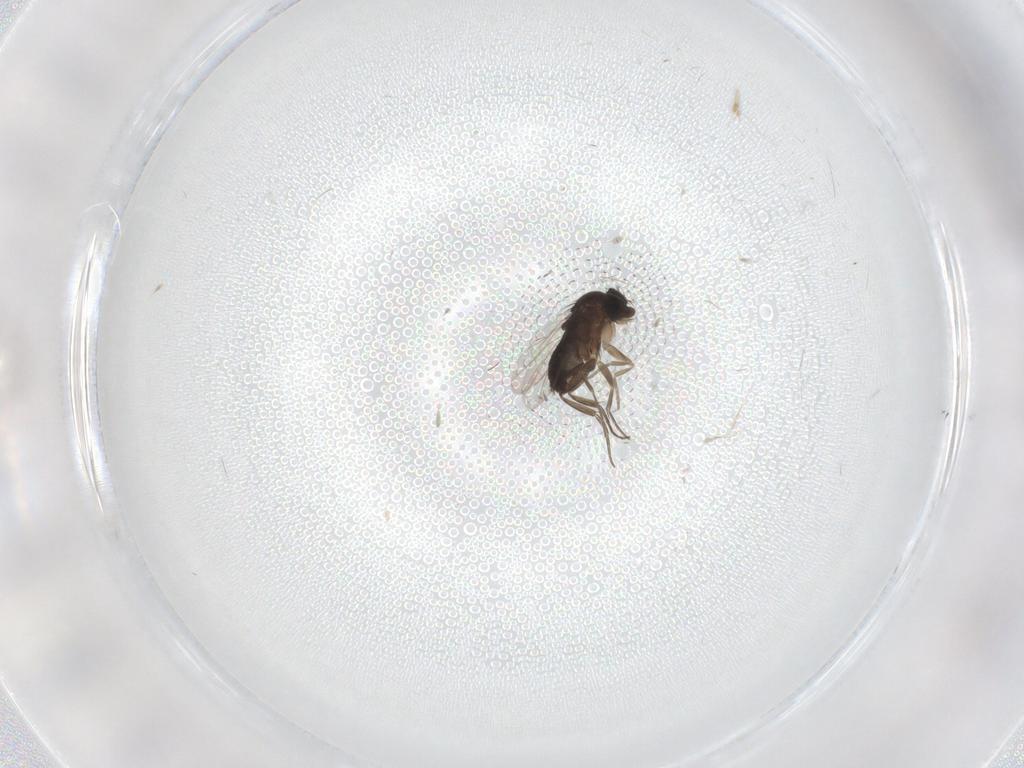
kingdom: Animalia
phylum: Arthropoda
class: Insecta
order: Diptera
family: Phoridae
